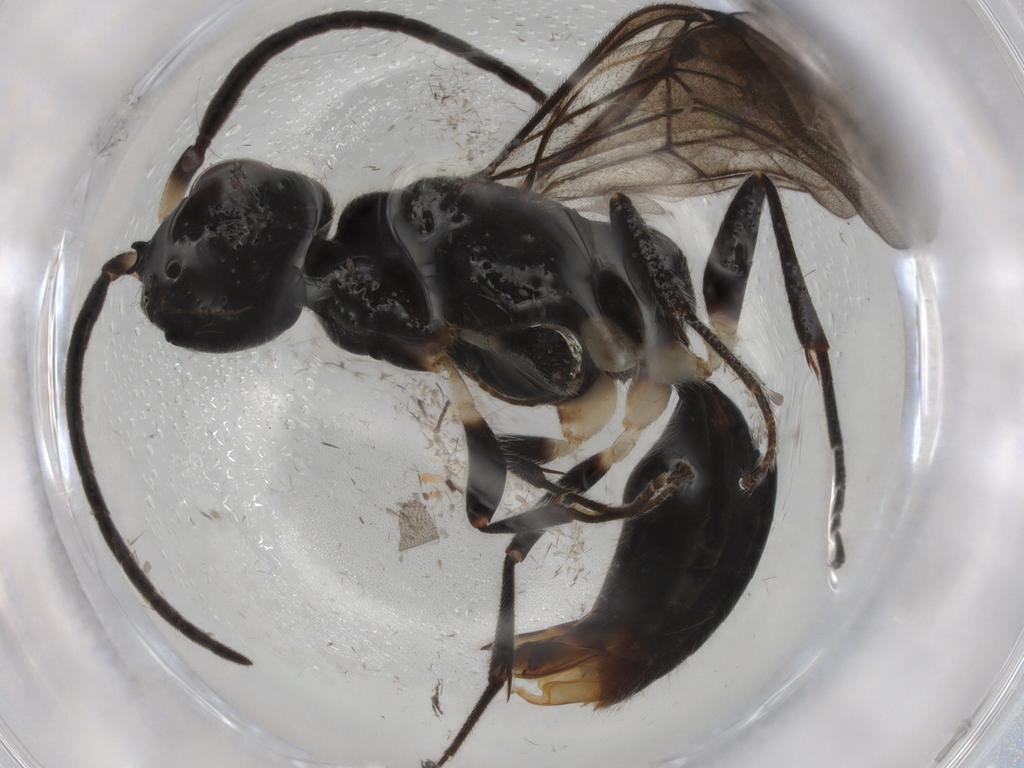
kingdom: Animalia
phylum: Arthropoda
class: Insecta
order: Hymenoptera
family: Bethylidae
